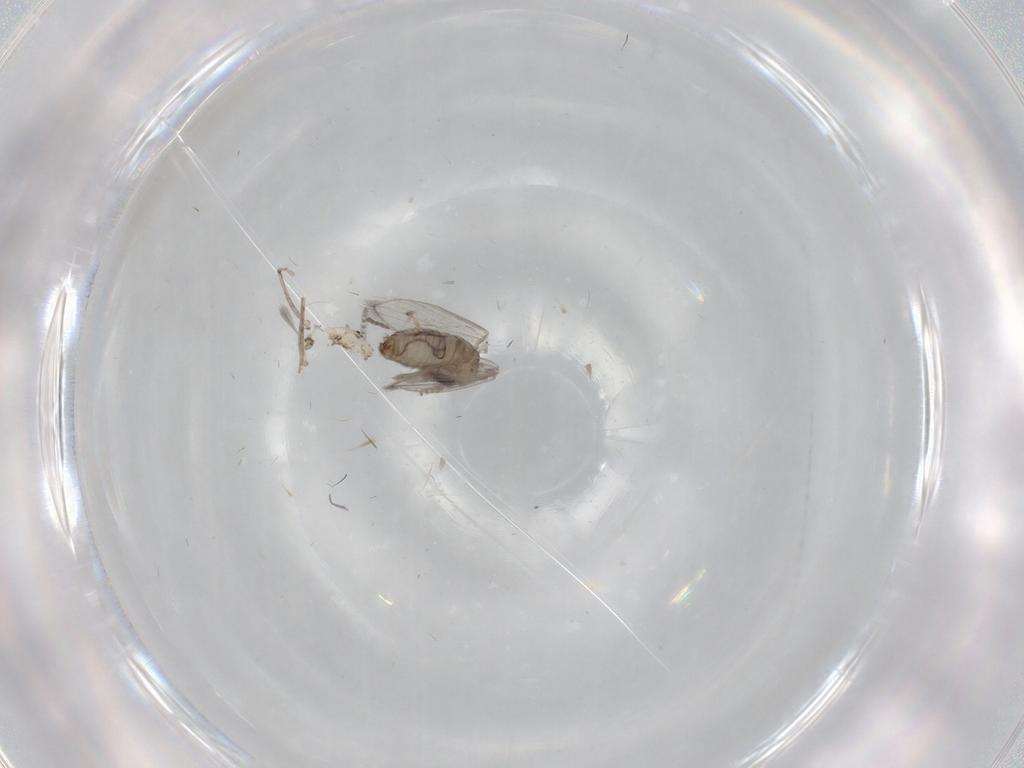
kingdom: Animalia
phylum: Arthropoda
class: Insecta
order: Diptera
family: Psychodidae
